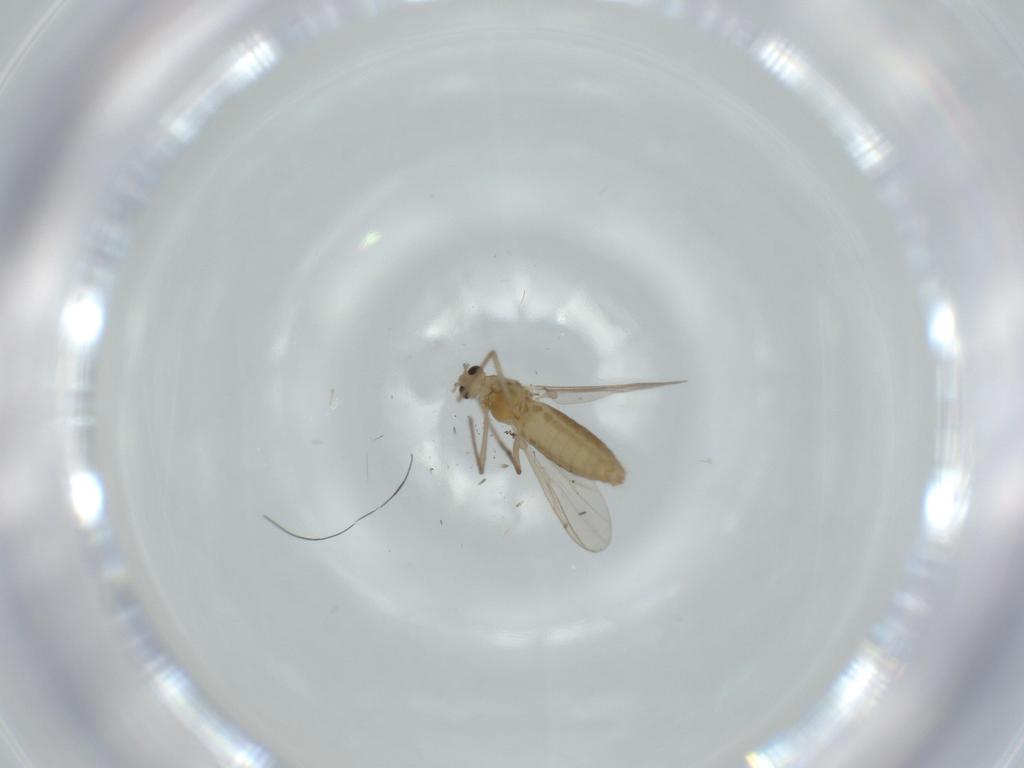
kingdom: Animalia
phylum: Arthropoda
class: Insecta
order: Diptera
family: Chironomidae
